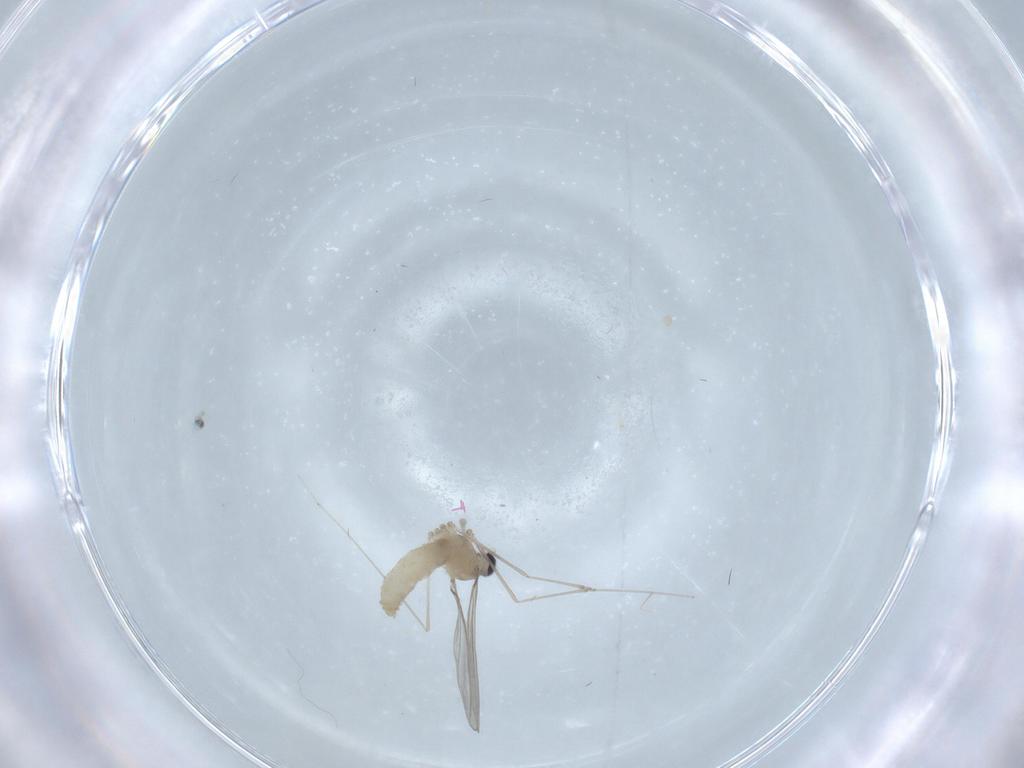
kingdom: Animalia
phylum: Arthropoda
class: Insecta
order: Diptera
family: Cecidomyiidae
